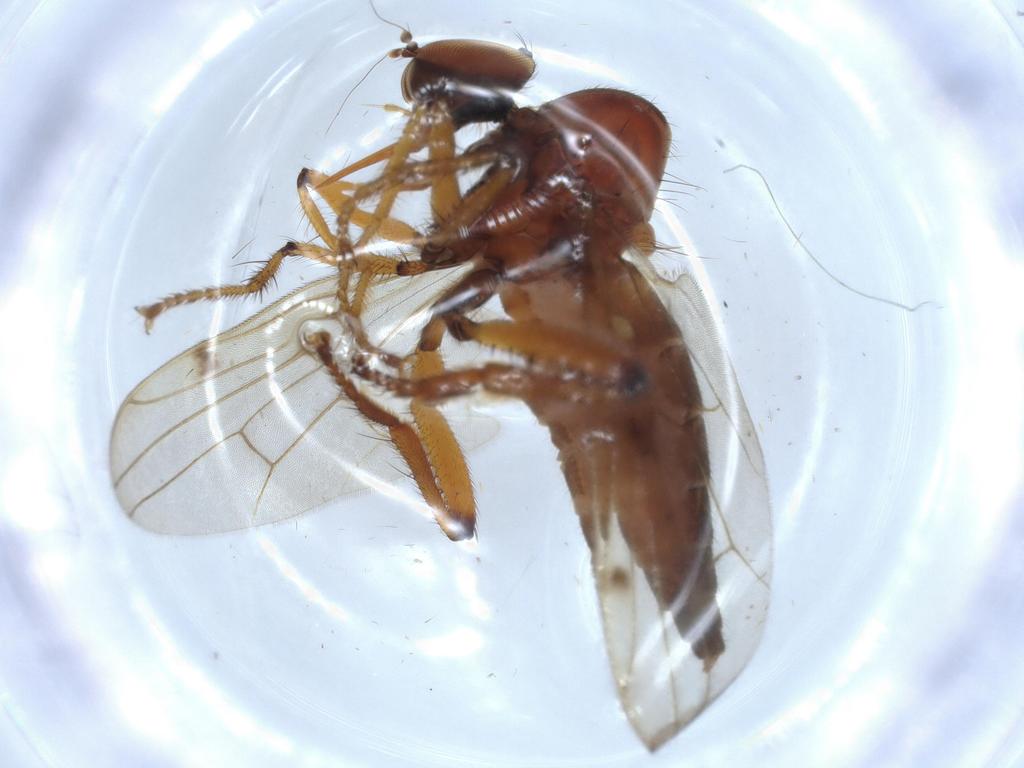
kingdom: Animalia
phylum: Arthropoda
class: Insecta
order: Diptera
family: Hybotidae
